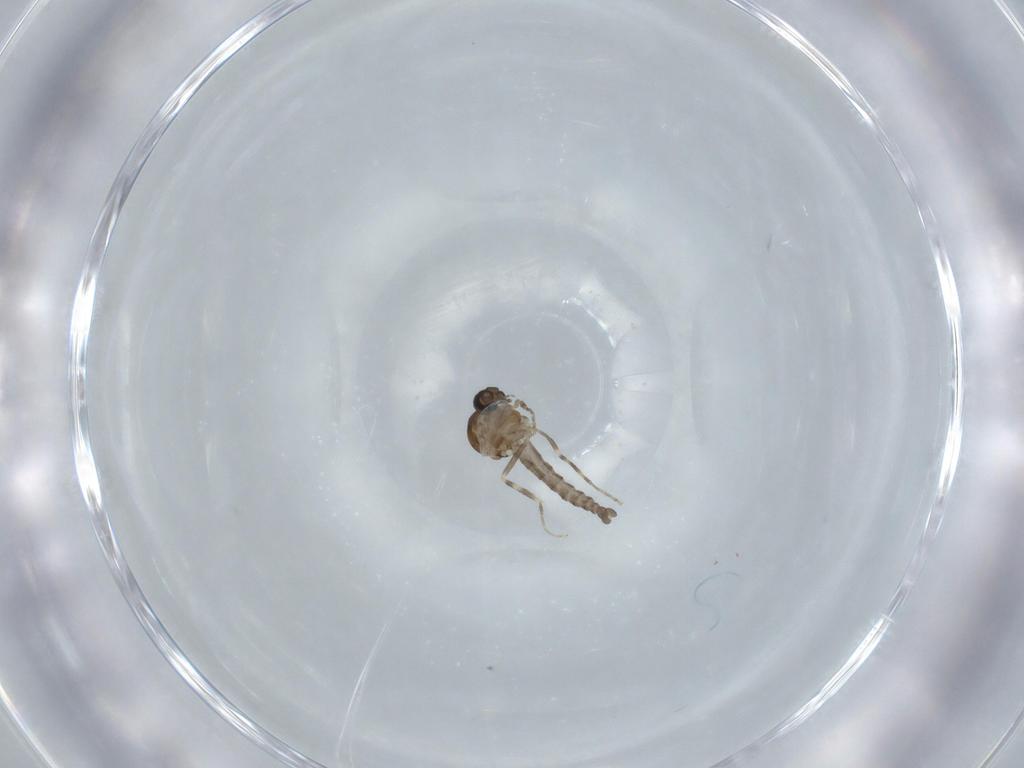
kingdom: Animalia
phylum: Arthropoda
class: Insecta
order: Diptera
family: Ceratopogonidae
